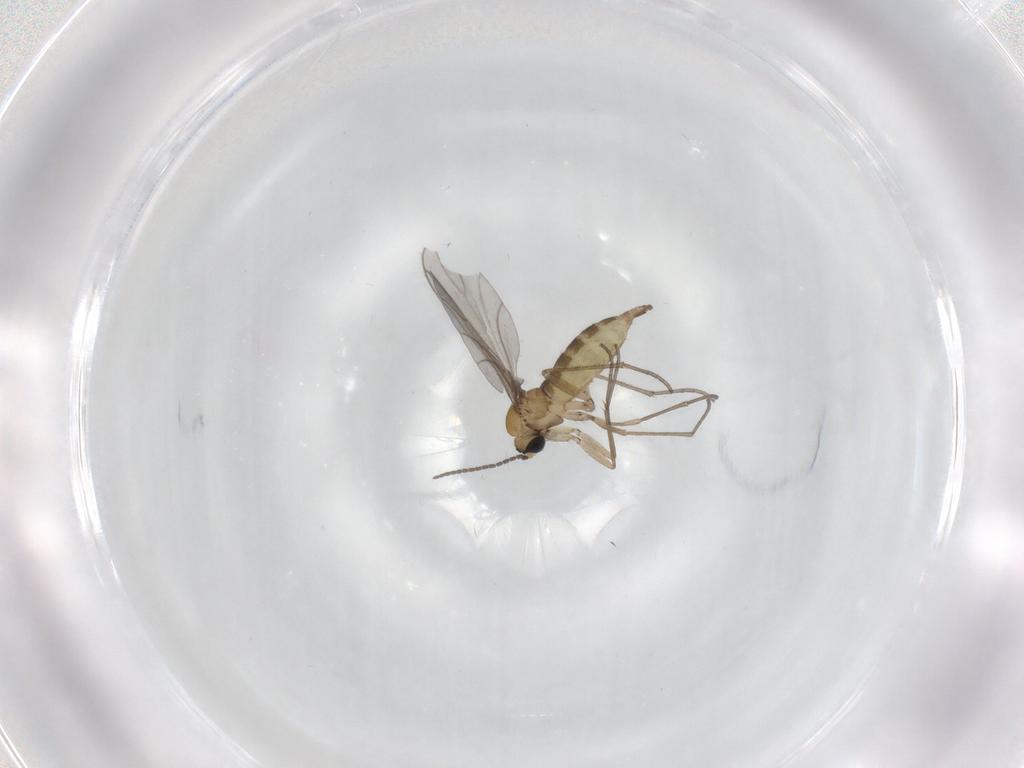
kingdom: Animalia
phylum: Arthropoda
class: Insecta
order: Diptera
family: Sciaridae
